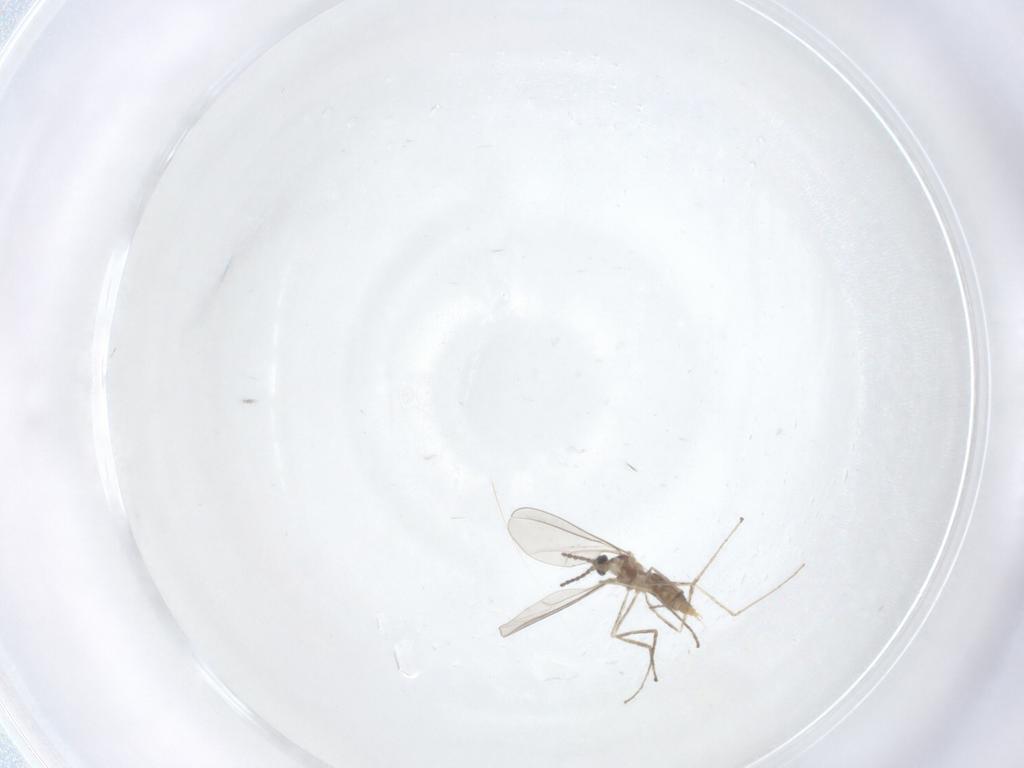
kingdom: Animalia
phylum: Arthropoda
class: Insecta
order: Diptera
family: Cecidomyiidae
